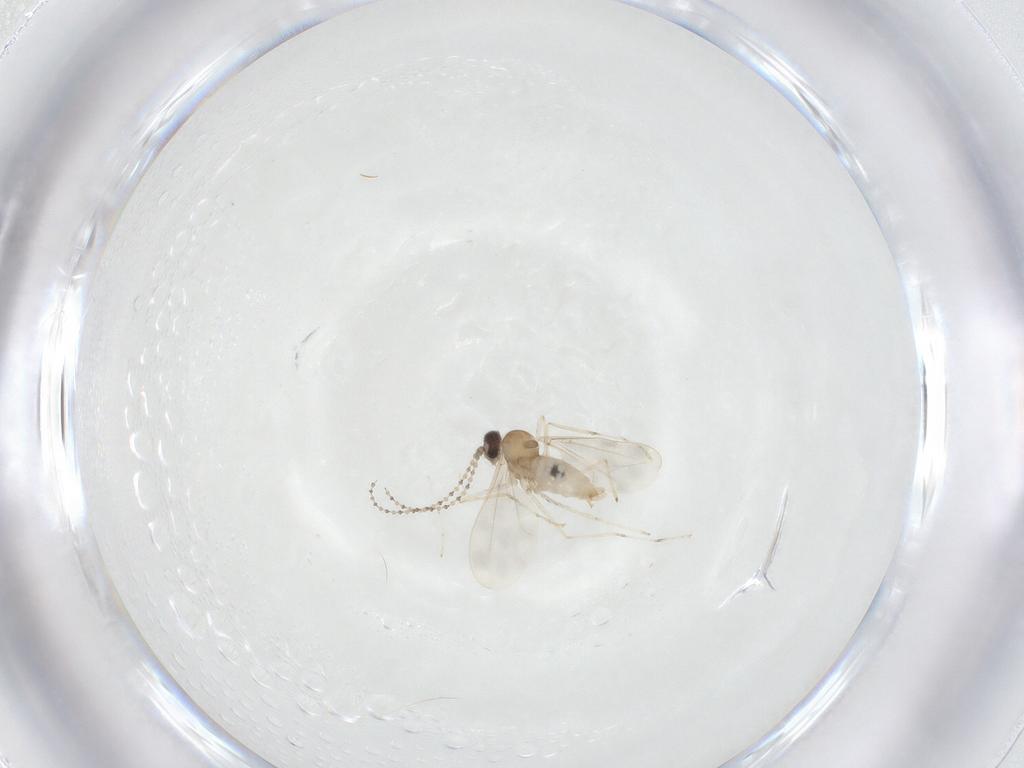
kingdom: Animalia
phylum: Arthropoda
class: Insecta
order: Diptera
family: Cecidomyiidae
